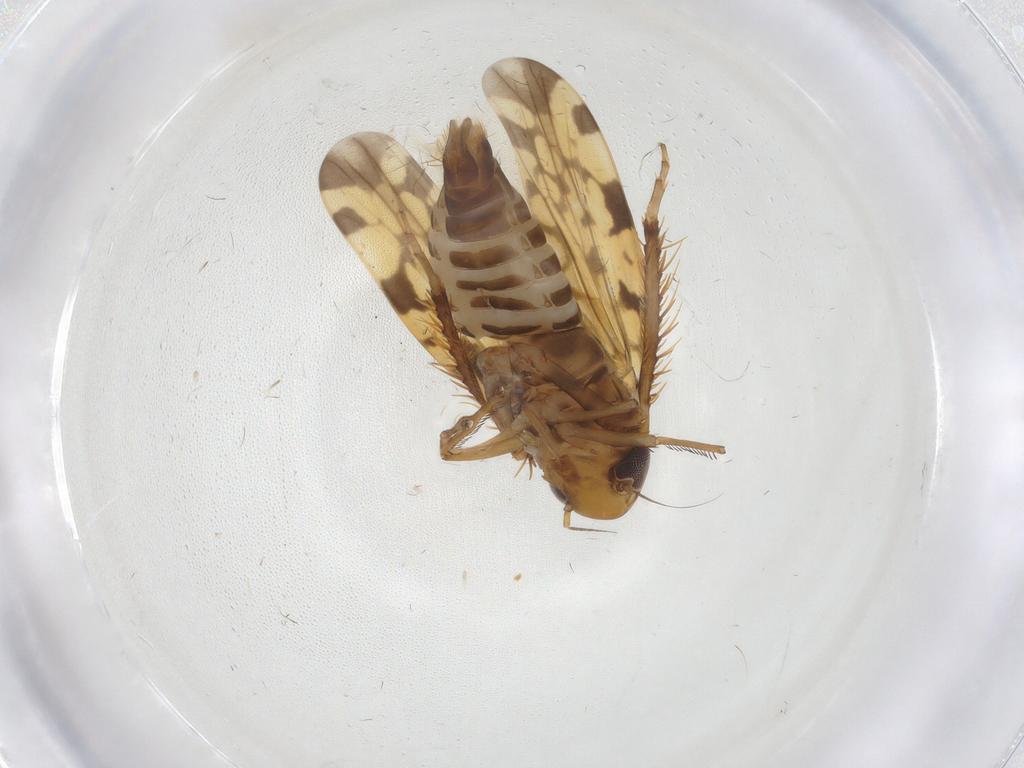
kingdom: Animalia
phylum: Arthropoda
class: Insecta
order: Hemiptera
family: Cicadellidae
